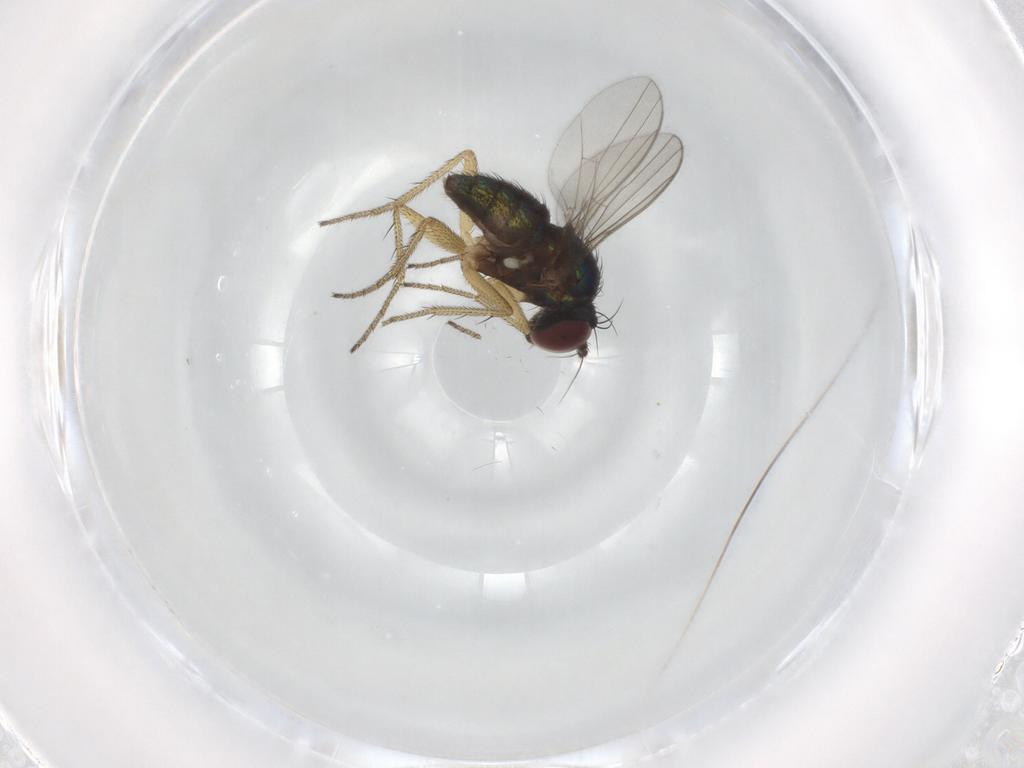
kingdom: Animalia
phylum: Arthropoda
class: Insecta
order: Diptera
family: Dolichopodidae
